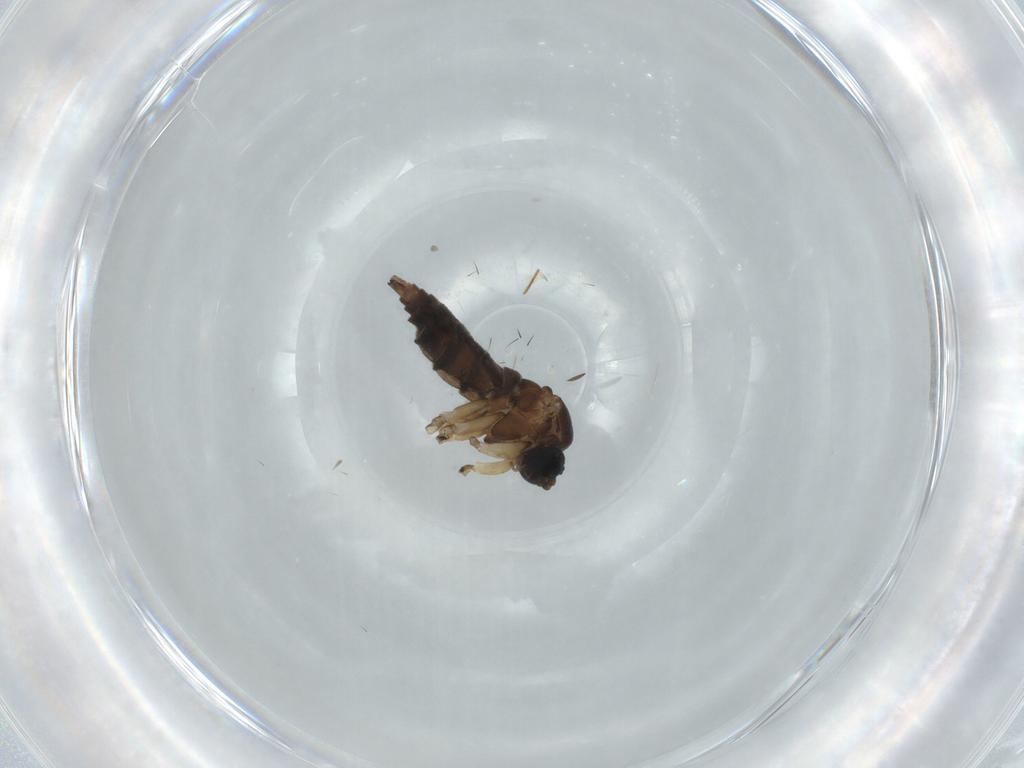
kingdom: Animalia
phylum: Arthropoda
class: Insecta
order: Diptera
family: Sciaridae
